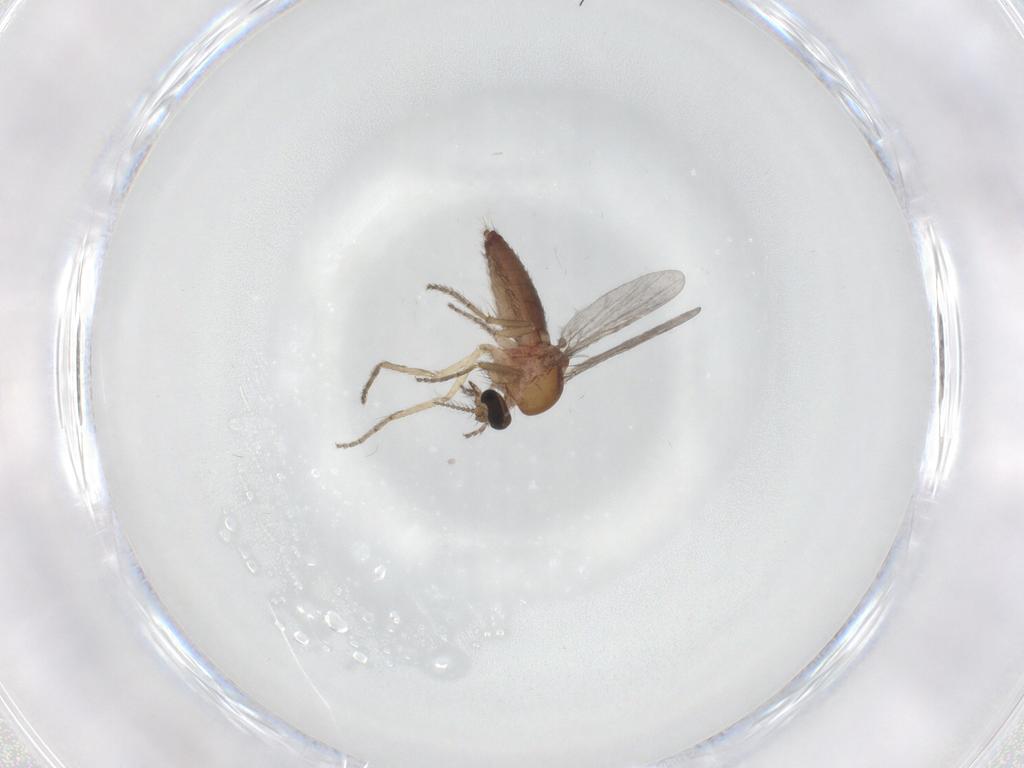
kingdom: Animalia
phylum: Arthropoda
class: Insecta
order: Diptera
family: Ceratopogonidae
